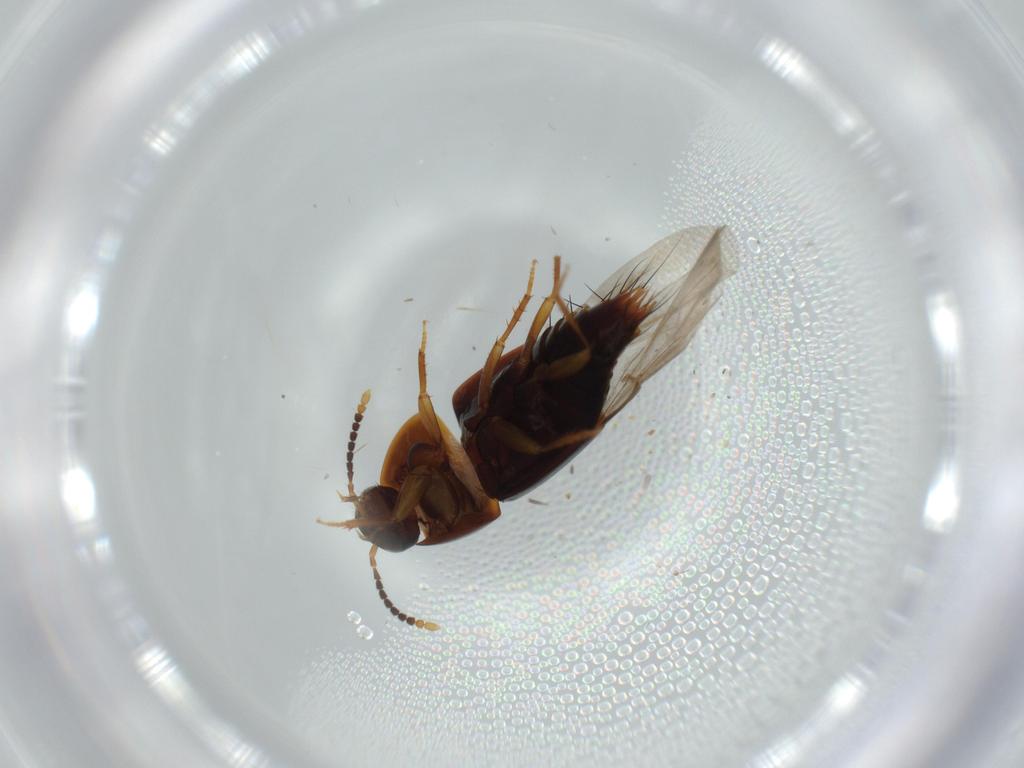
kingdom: Animalia
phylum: Arthropoda
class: Insecta
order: Coleoptera
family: Staphylinidae
